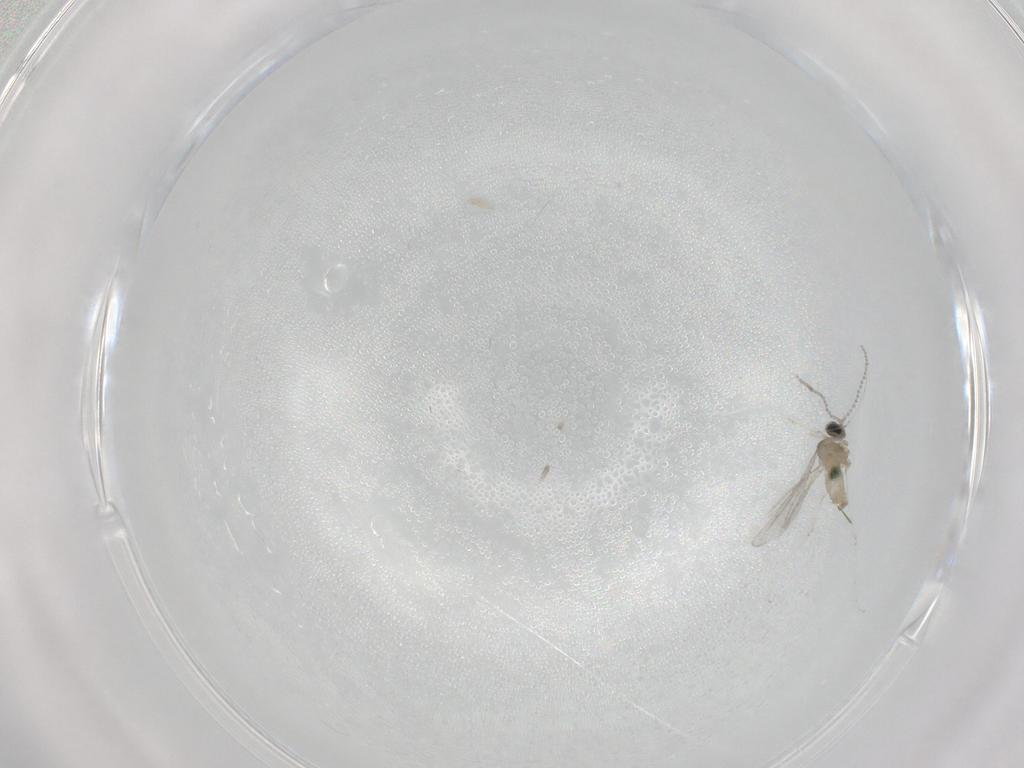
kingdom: Animalia
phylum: Arthropoda
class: Insecta
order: Diptera
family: Cecidomyiidae
